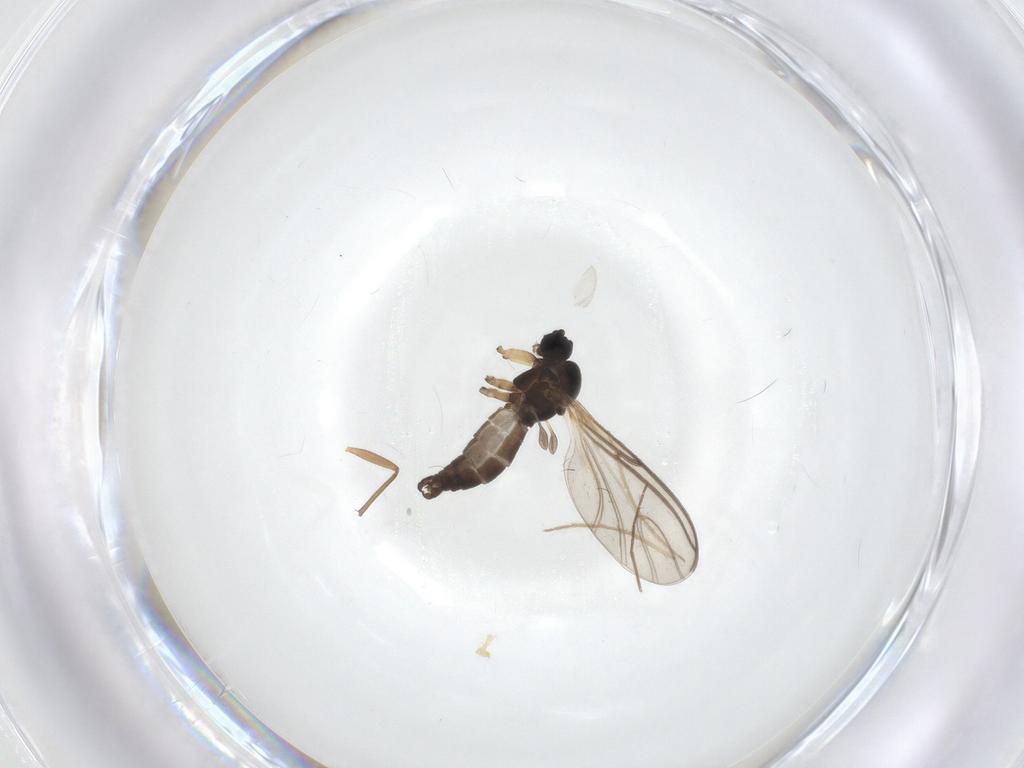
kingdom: Animalia
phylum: Arthropoda
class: Insecta
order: Diptera
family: Sciaridae
